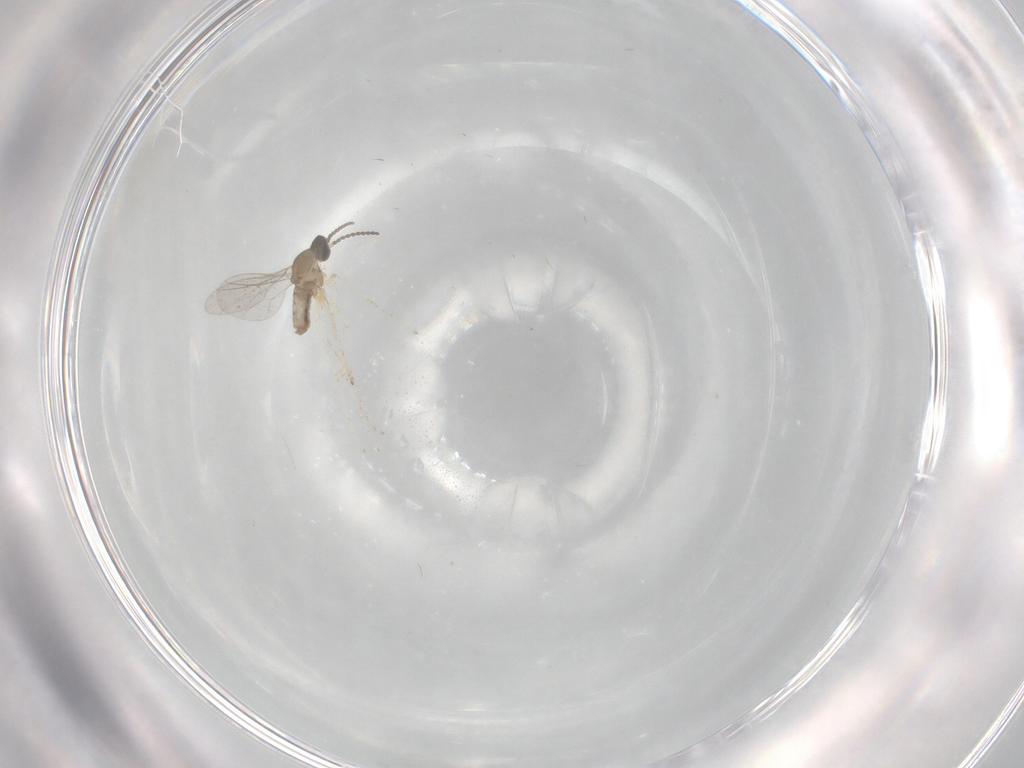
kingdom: Animalia
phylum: Arthropoda
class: Insecta
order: Diptera
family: Cecidomyiidae
